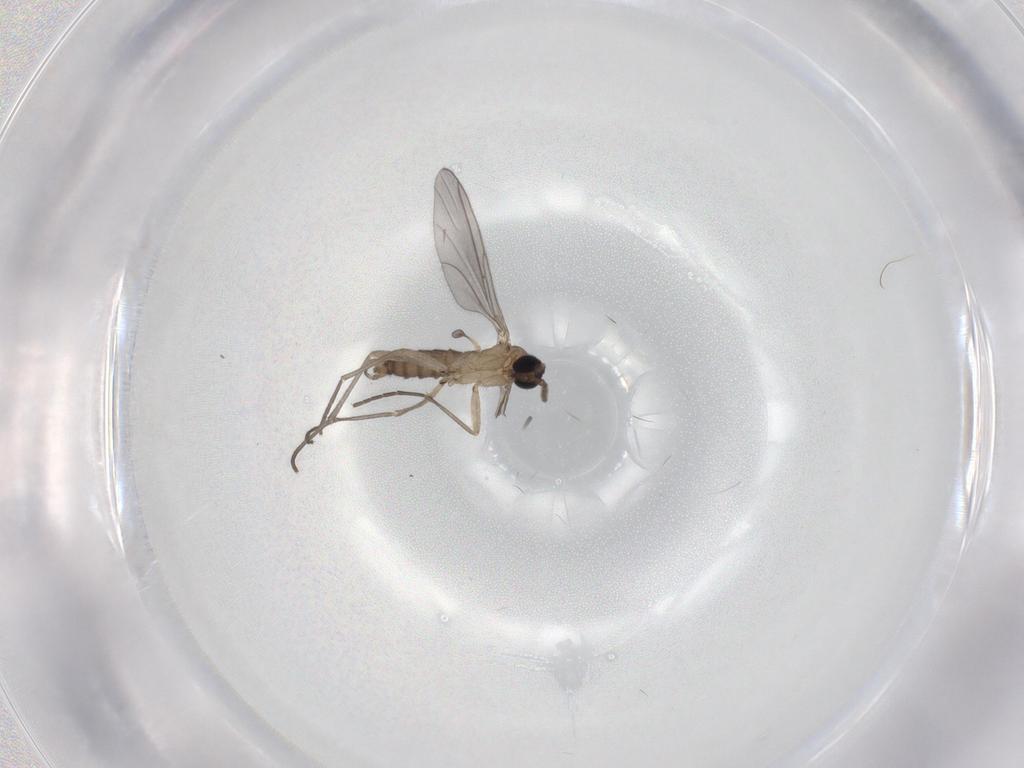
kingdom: Animalia
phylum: Arthropoda
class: Insecta
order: Diptera
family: Sciaridae
